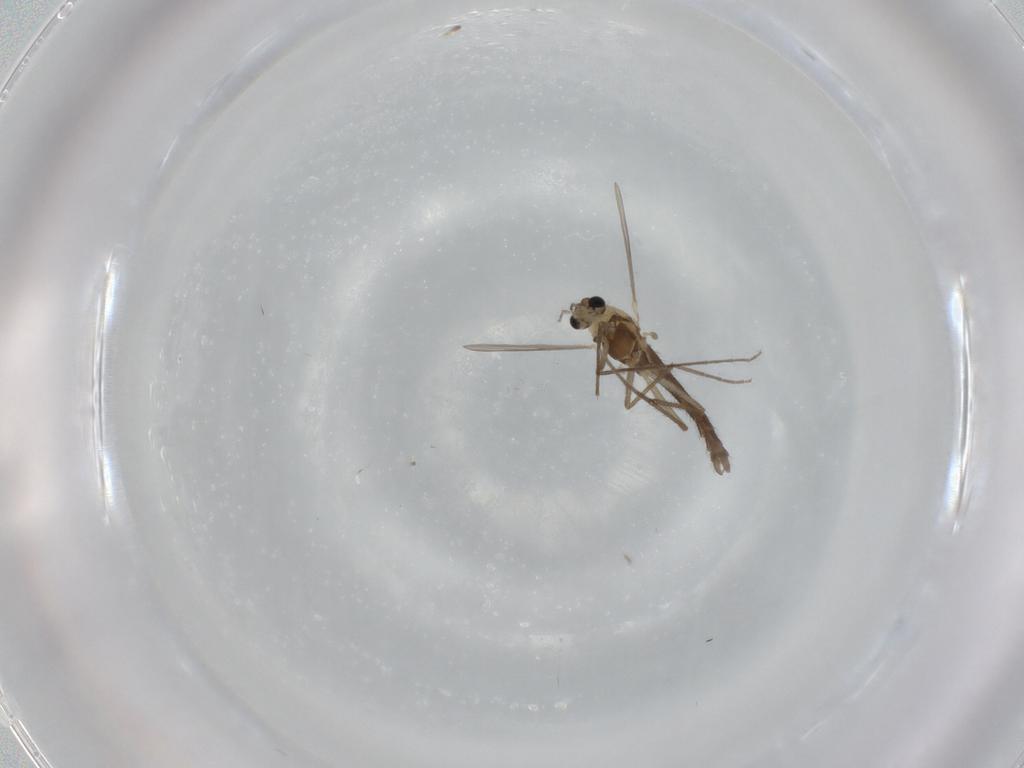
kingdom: Animalia
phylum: Arthropoda
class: Insecta
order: Diptera
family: Chironomidae
